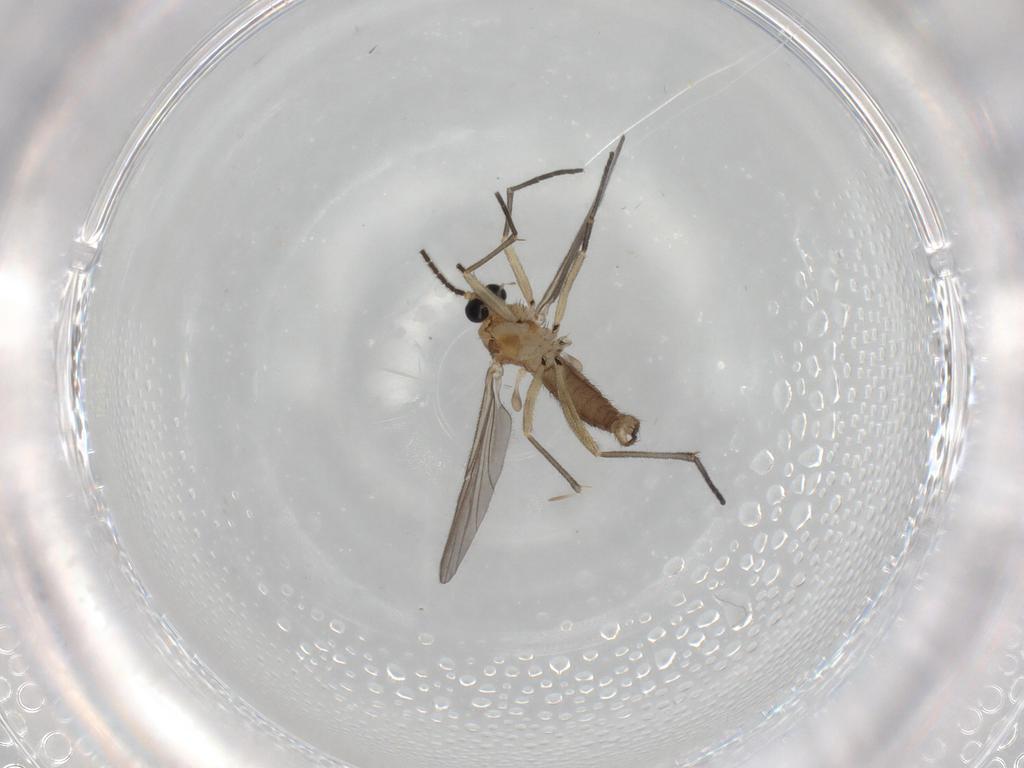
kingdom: Animalia
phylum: Arthropoda
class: Insecta
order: Diptera
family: Sciaridae
